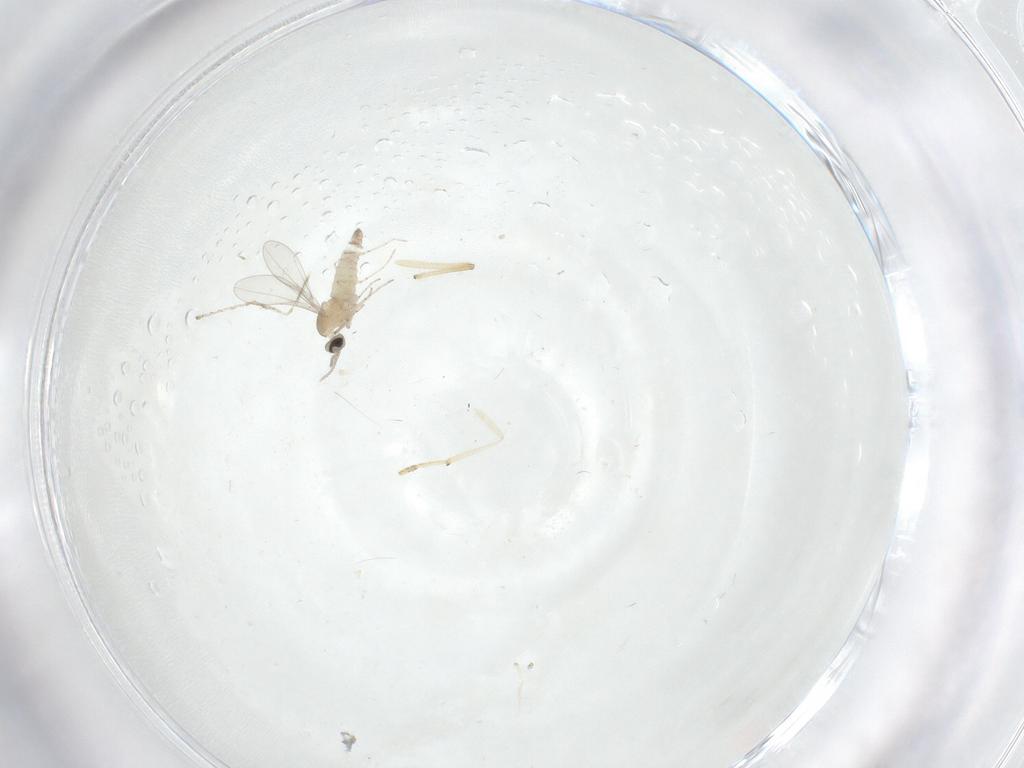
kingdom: Animalia
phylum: Arthropoda
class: Insecta
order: Diptera
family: Cecidomyiidae
